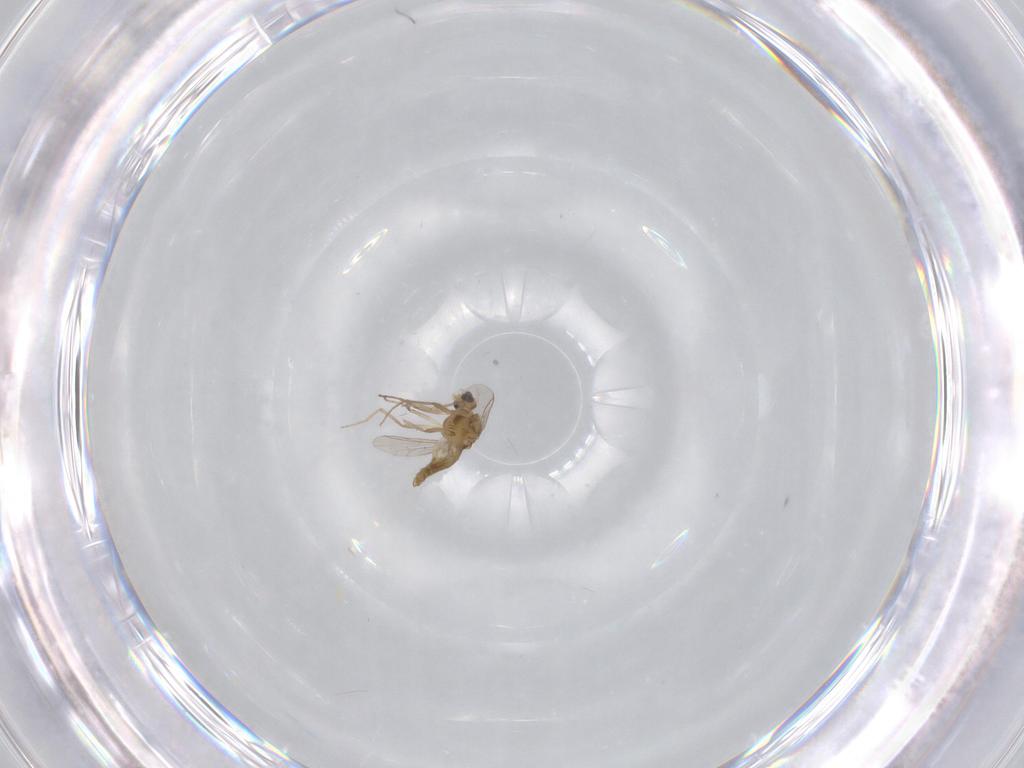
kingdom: Animalia
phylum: Arthropoda
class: Insecta
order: Diptera
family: Chironomidae
